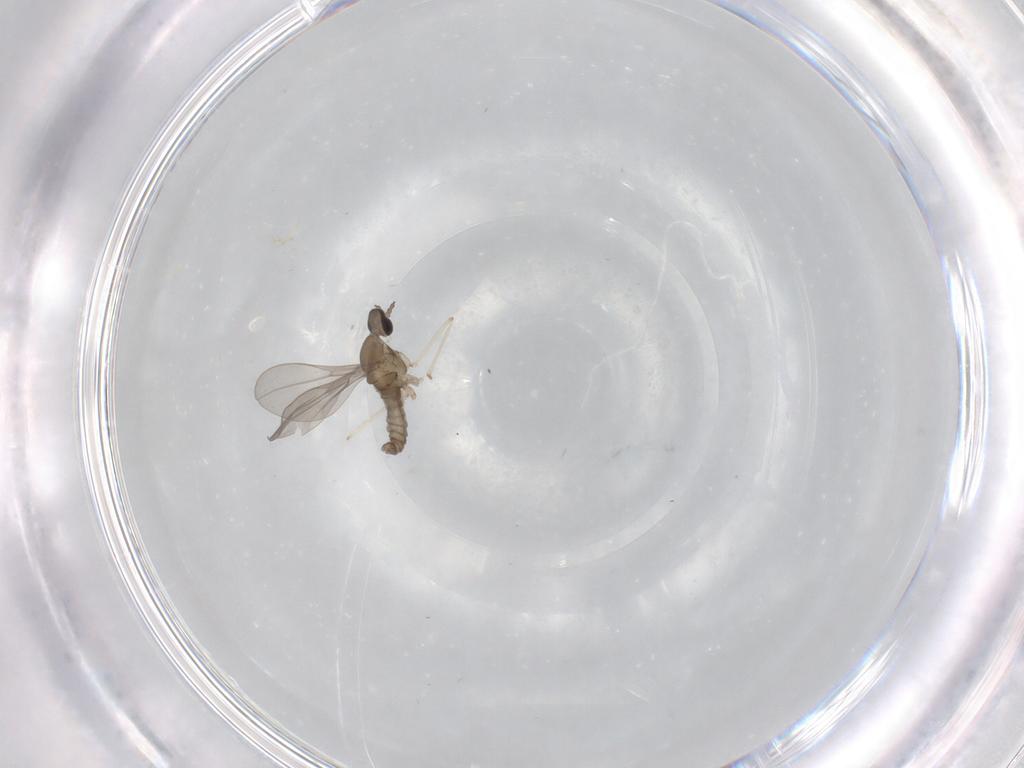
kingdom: Animalia
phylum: Arthropoda
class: Insecta
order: Diptera
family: Cecidomyiidae
